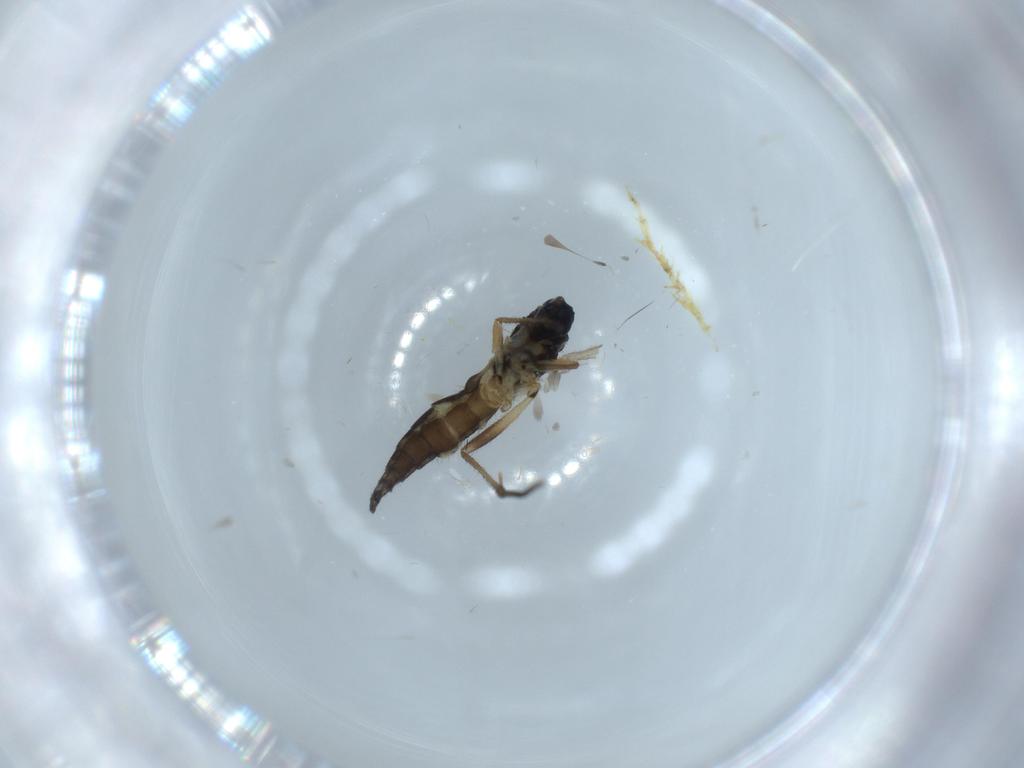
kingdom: Animalia
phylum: Arthropoda
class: Insecta
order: Diptera
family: Sciaridae
